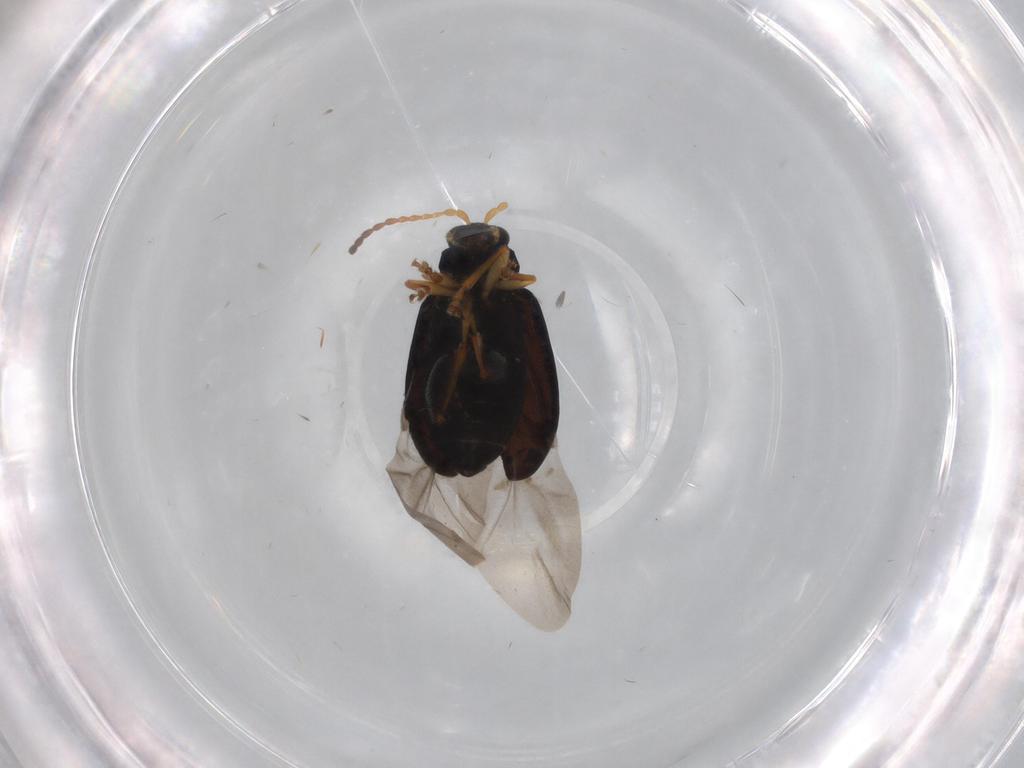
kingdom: Animalia
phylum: Arthropoda
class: Insecta
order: Coleoptera
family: Chrysomelidae
